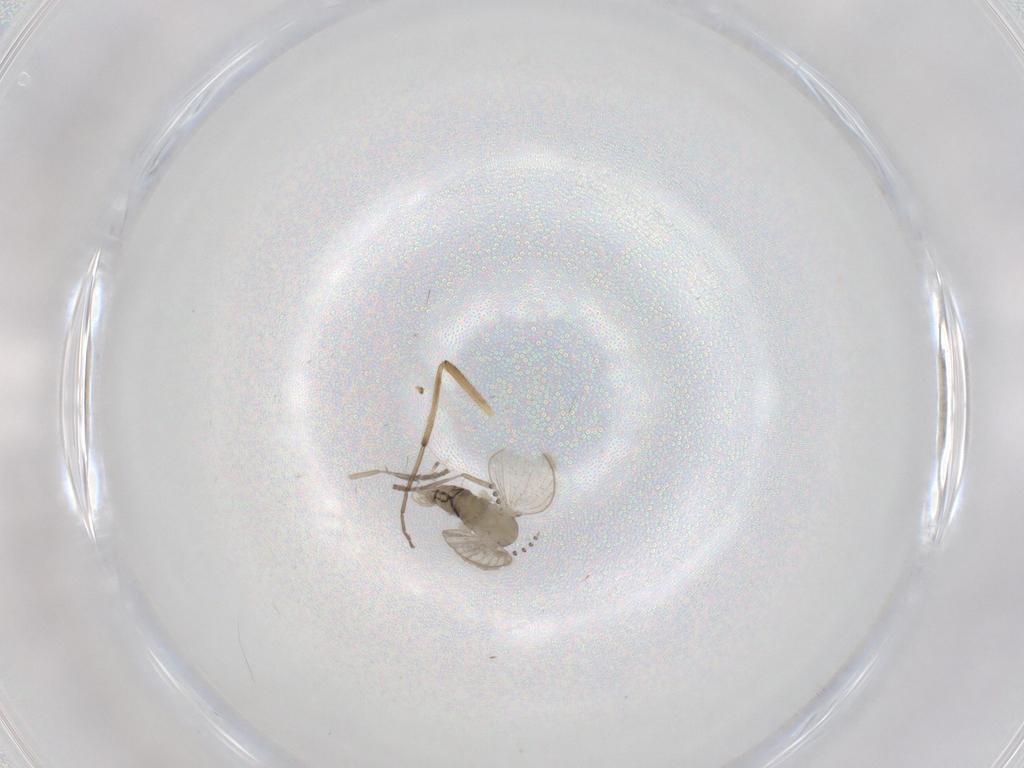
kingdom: Animalia
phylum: Arthropoda
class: Insecta
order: Diptera
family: Psychodidae
